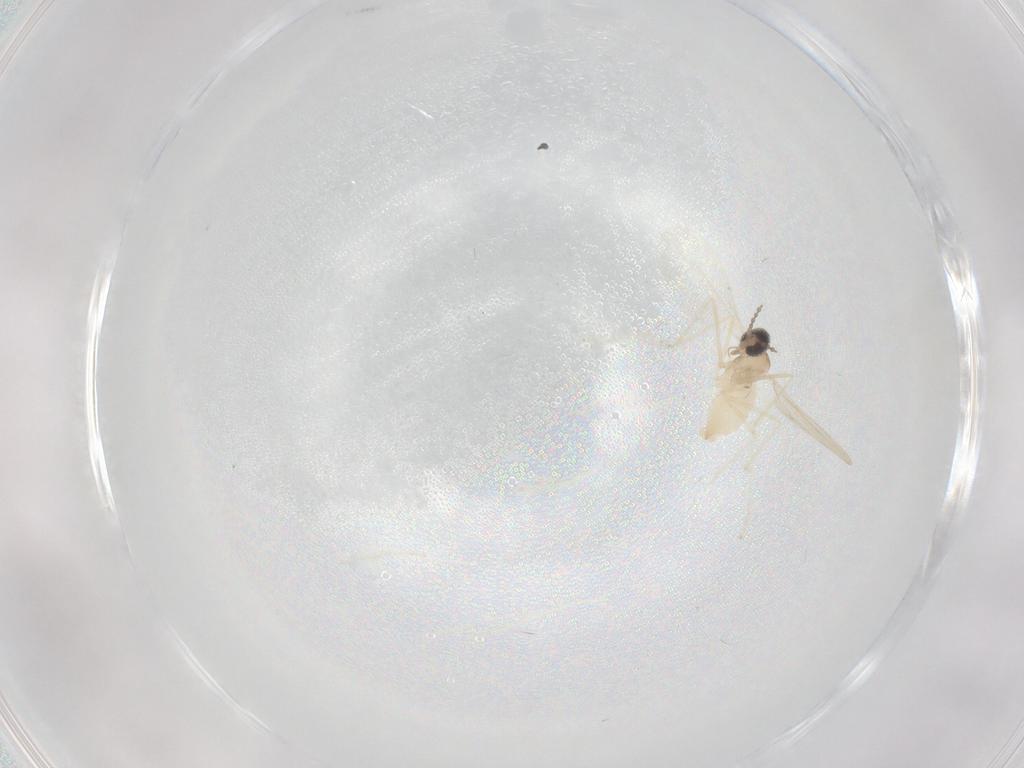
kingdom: Animalia
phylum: Arthropoda
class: Insecta
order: Diptera
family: Cecidomyiidae
